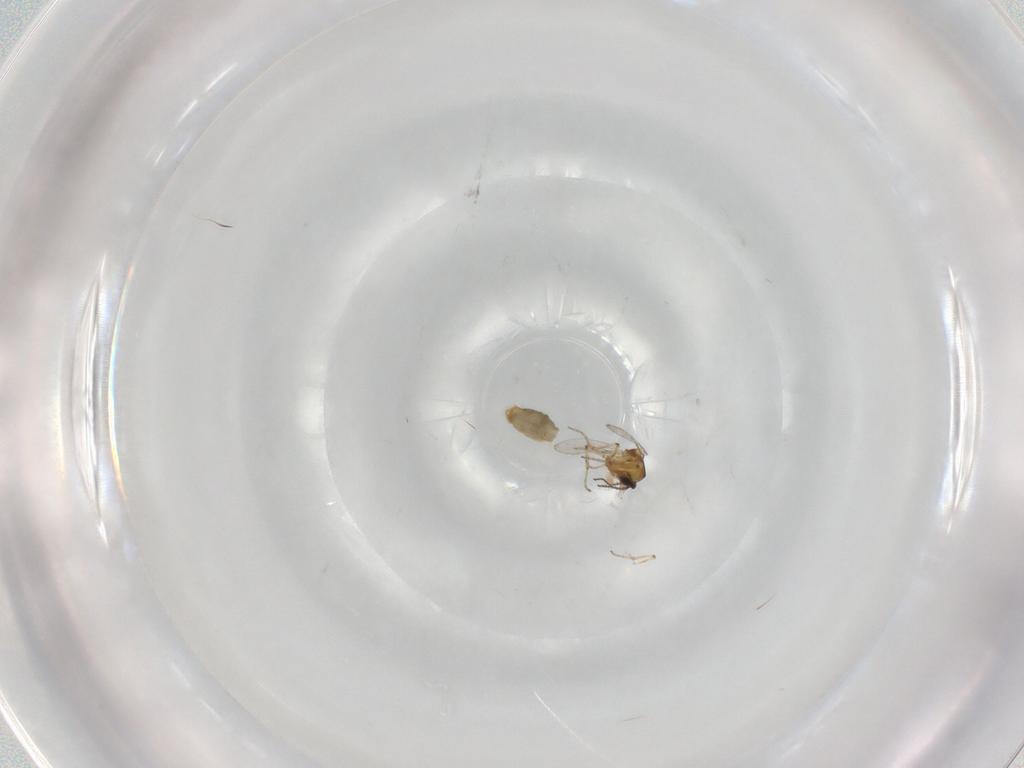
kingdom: Animalia
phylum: Arthropoda
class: Insecta
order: Diptera
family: Ceratopogonidae
